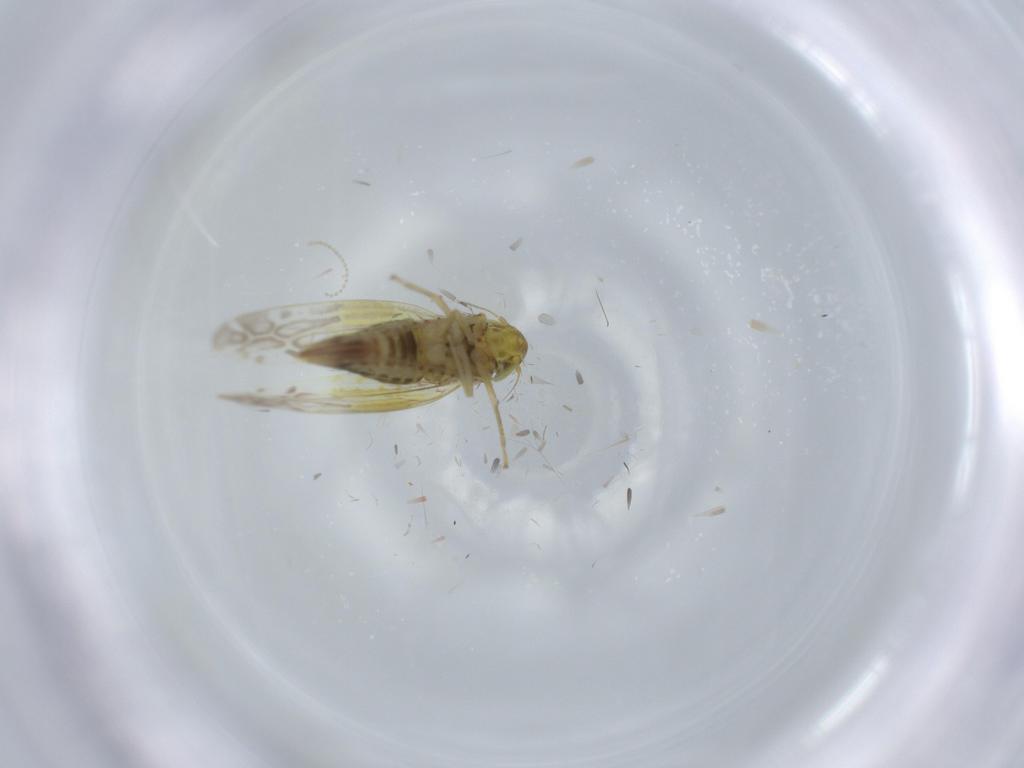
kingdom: Animalia
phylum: Arthropoda
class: Insecta
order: Hemiptera
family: Cicadellidae
